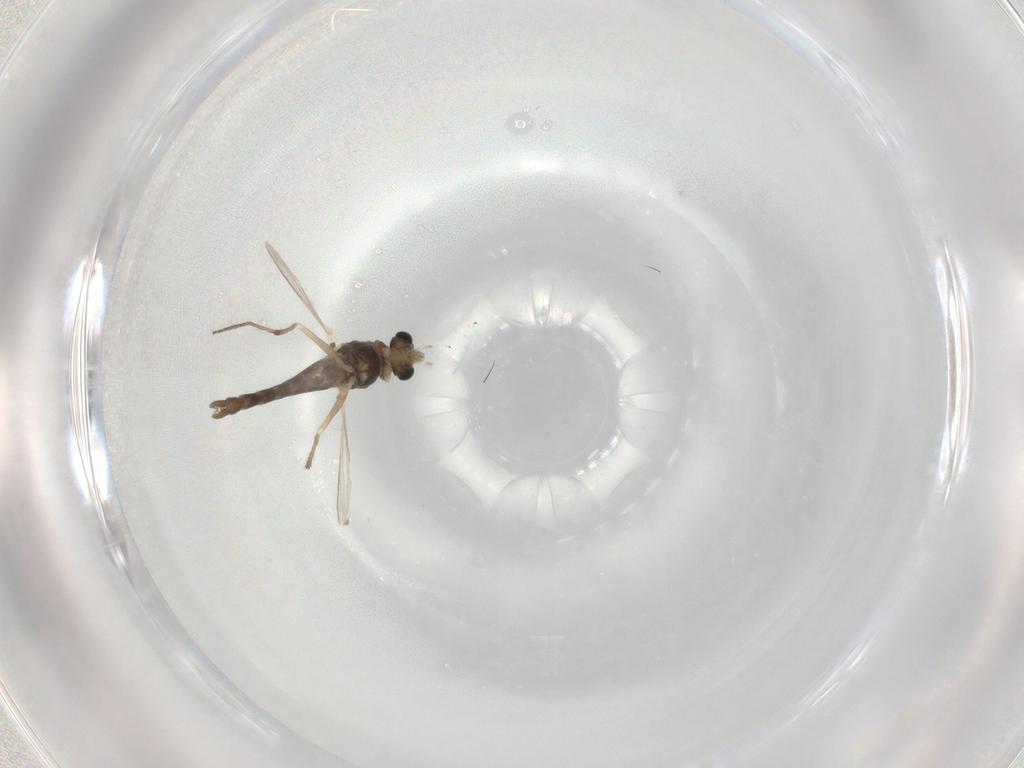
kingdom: Animalia
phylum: Arthropoda
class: Insecta
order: Diptera
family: Chironomidae
